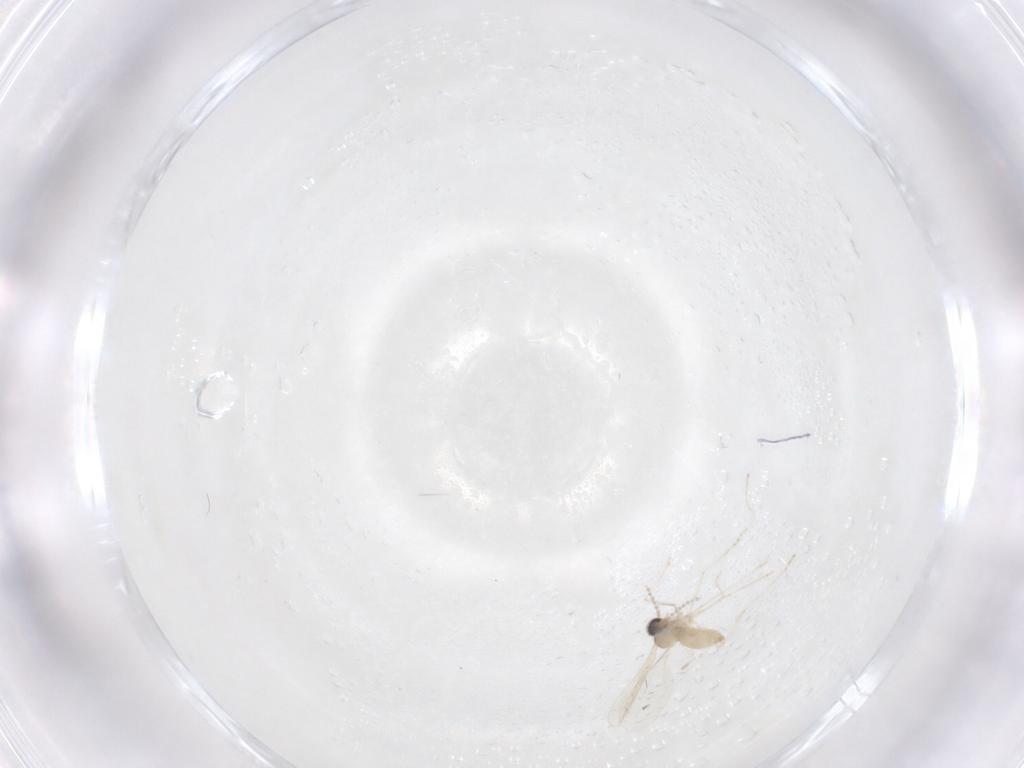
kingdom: Animalia
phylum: Arthropoda
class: Insecta
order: Diptera
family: Cecidomyiidae
